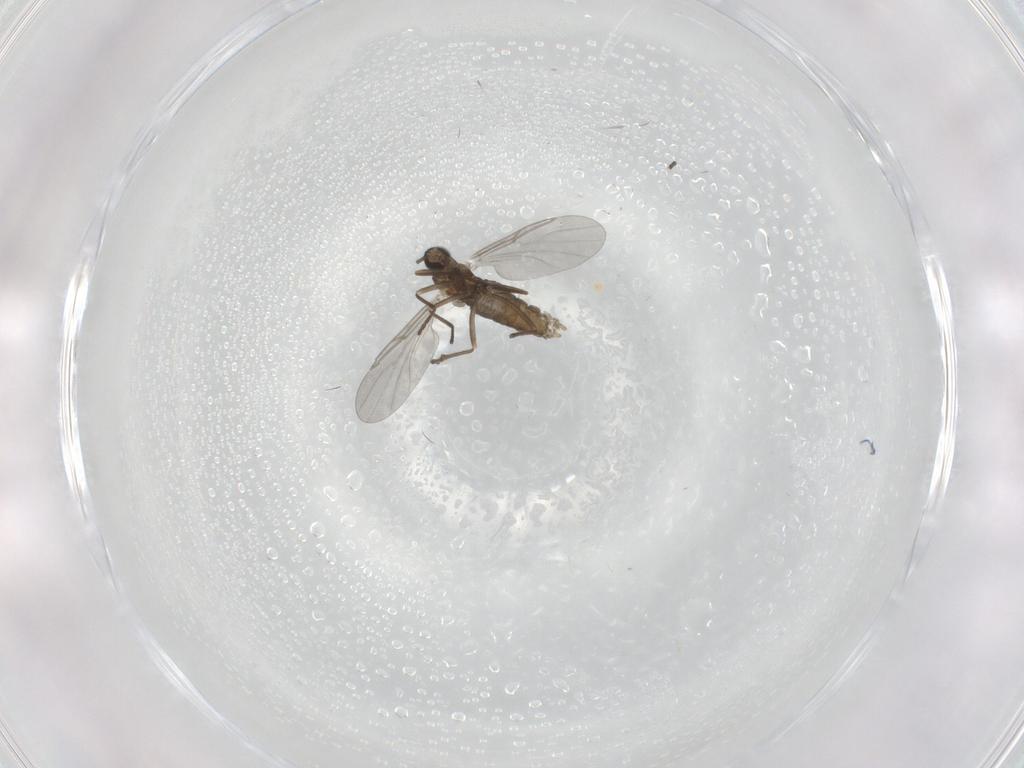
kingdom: Animalia
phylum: Arthropoda
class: Insecta
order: Diptera
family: Cecidomyiidae
